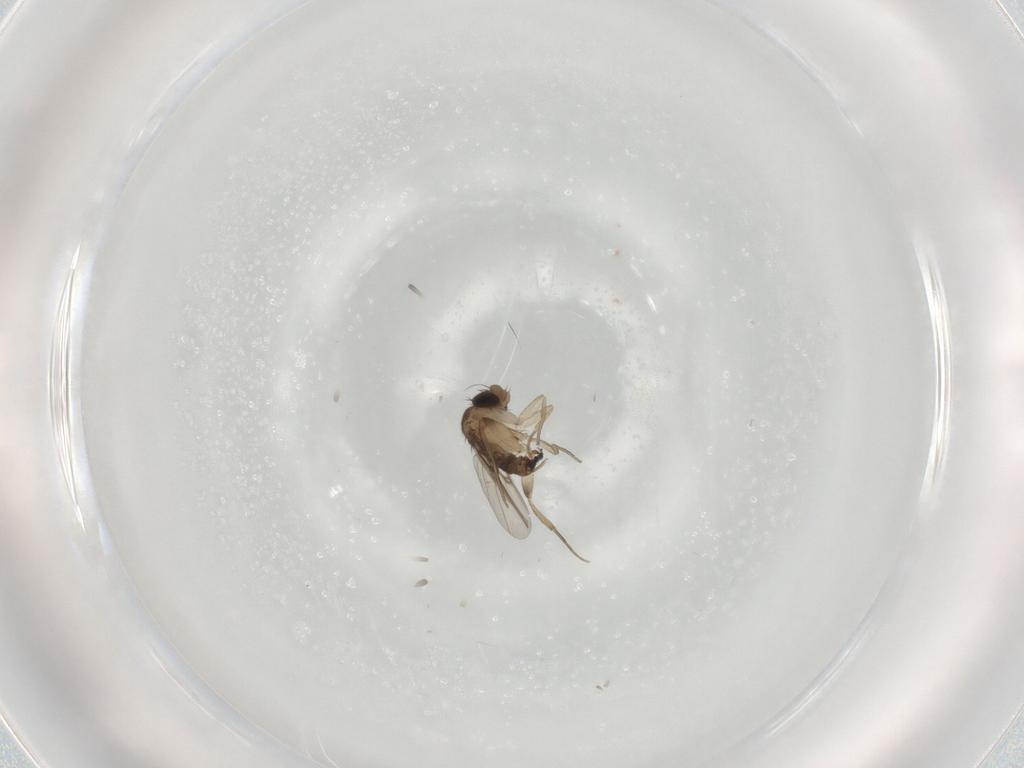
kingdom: Animalia
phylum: Arthropoda
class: Insecta
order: Diptera
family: Phoridae
